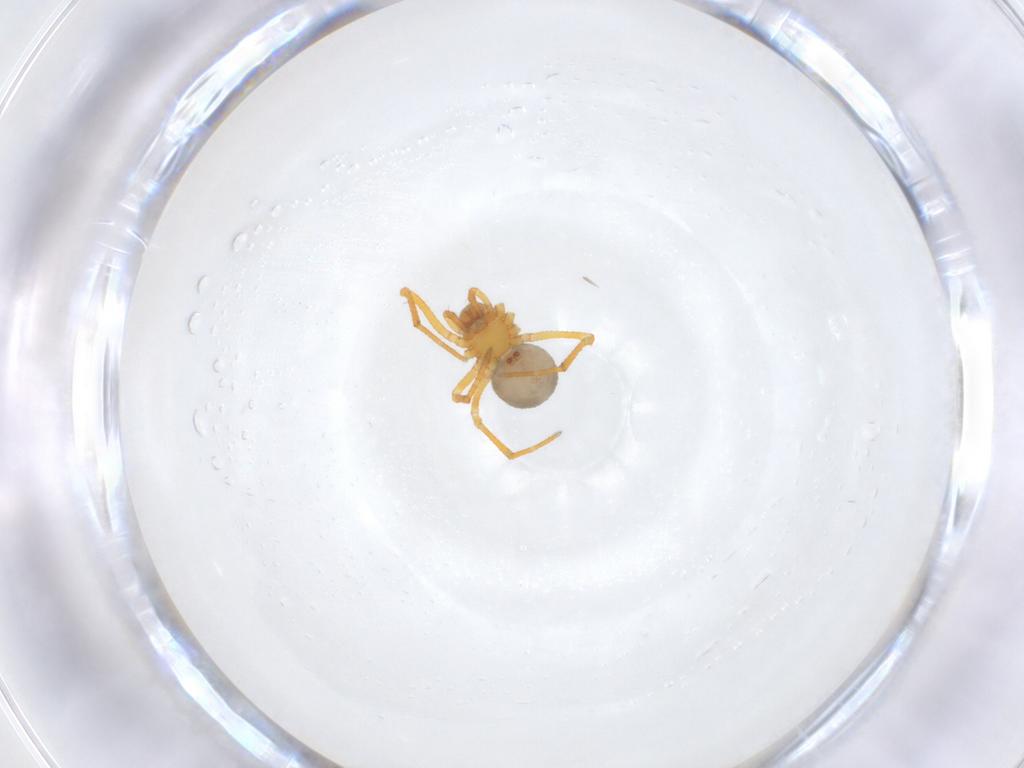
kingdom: Animalia
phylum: Arthropoda
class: Arachnida
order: Araneae
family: Theridiidae
